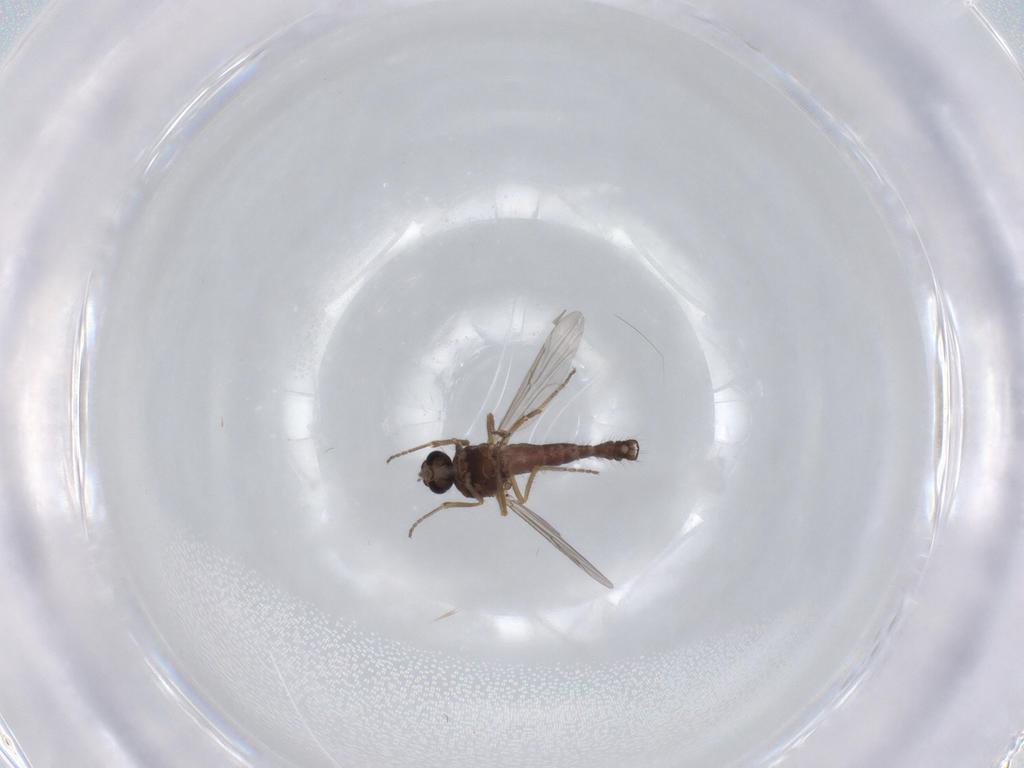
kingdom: Animalia
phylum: Arthropoda
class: Insecta
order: Diptera
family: Ceratopogonidae
